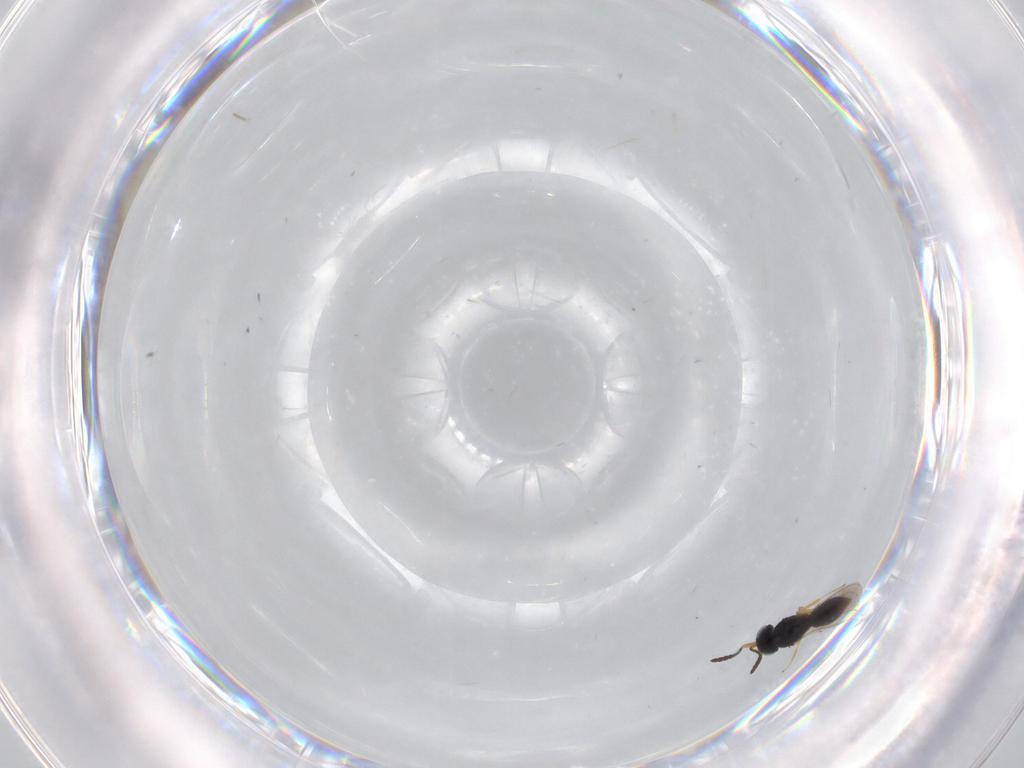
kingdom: Animalia
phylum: Arthropoda
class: Insecta
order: Hymenoptera
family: Scelionidae
